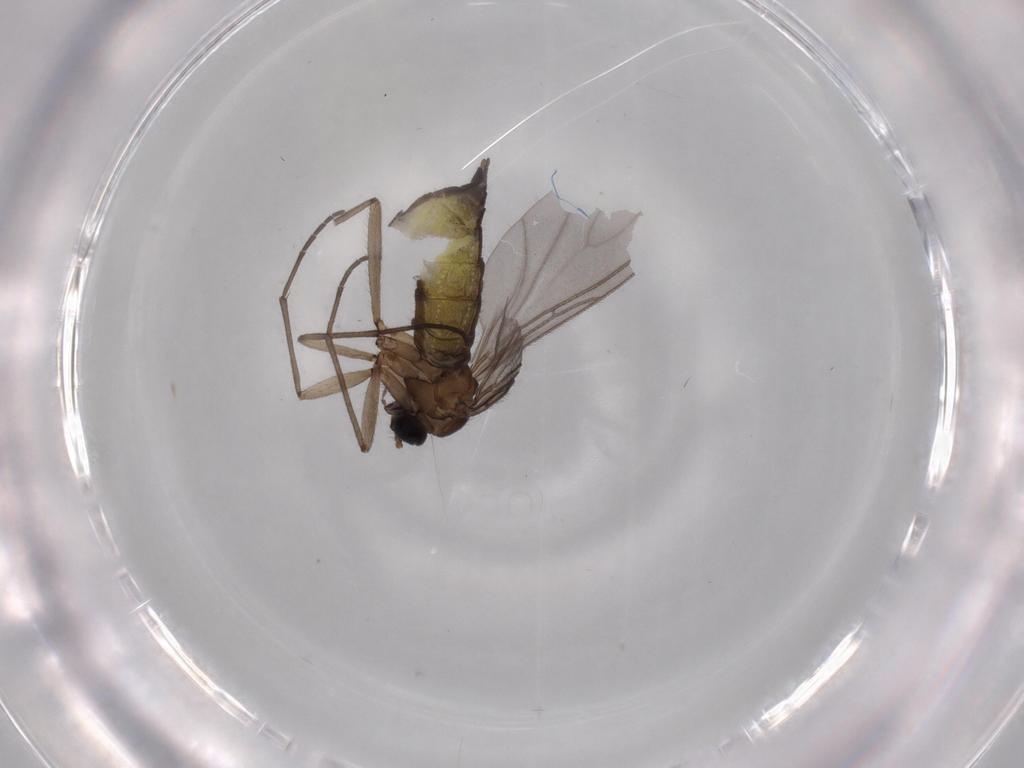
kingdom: Animalia
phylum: Arthropoda
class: Insecta
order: Diptera
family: Sciaridae
